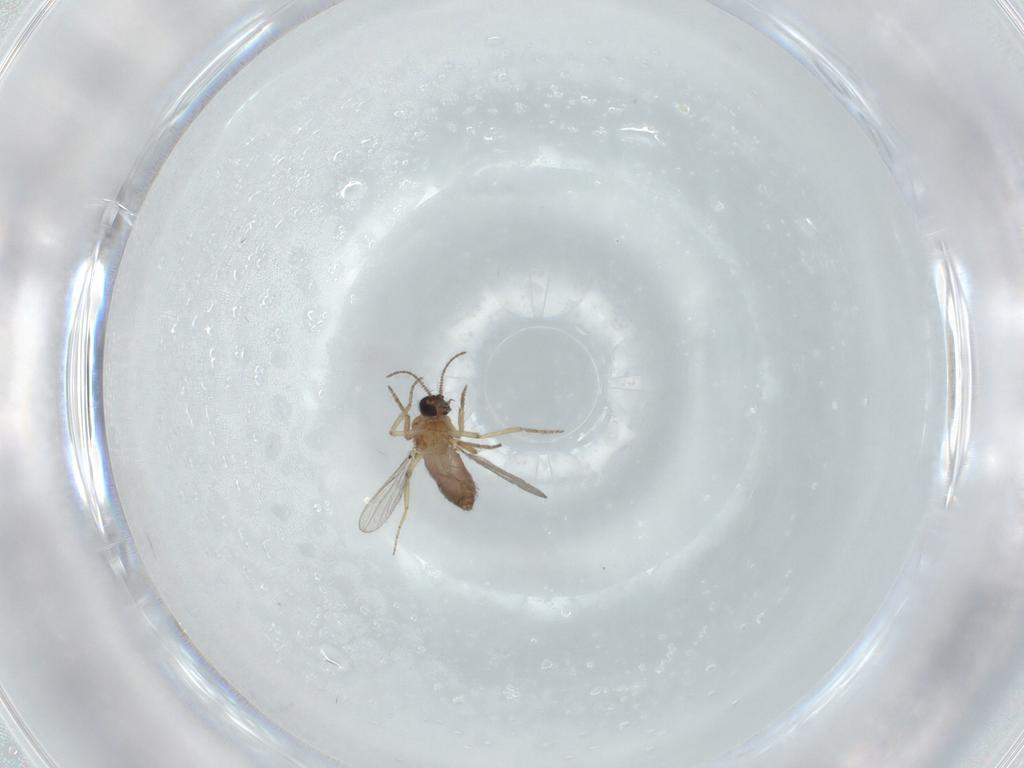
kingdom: Animalia
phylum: Arthropoda
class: Insecta
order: Diptera
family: Ceratopogonidae
